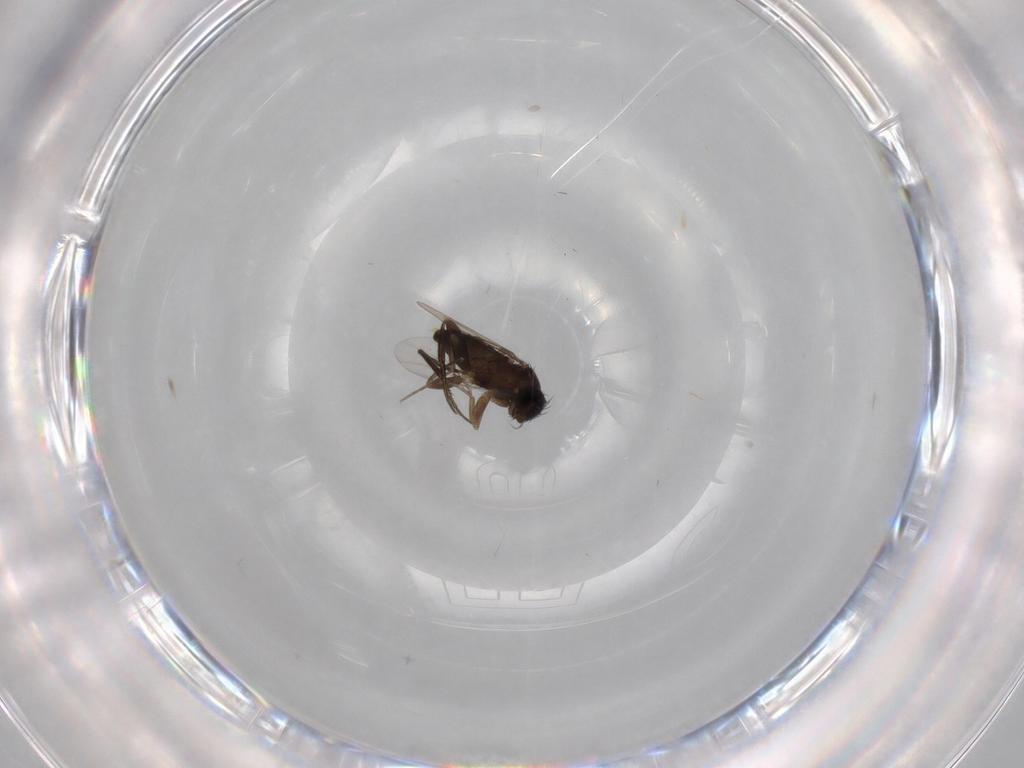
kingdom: Animalia
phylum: Arthropoda
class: Insecta
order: Diptera
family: Phoridae
